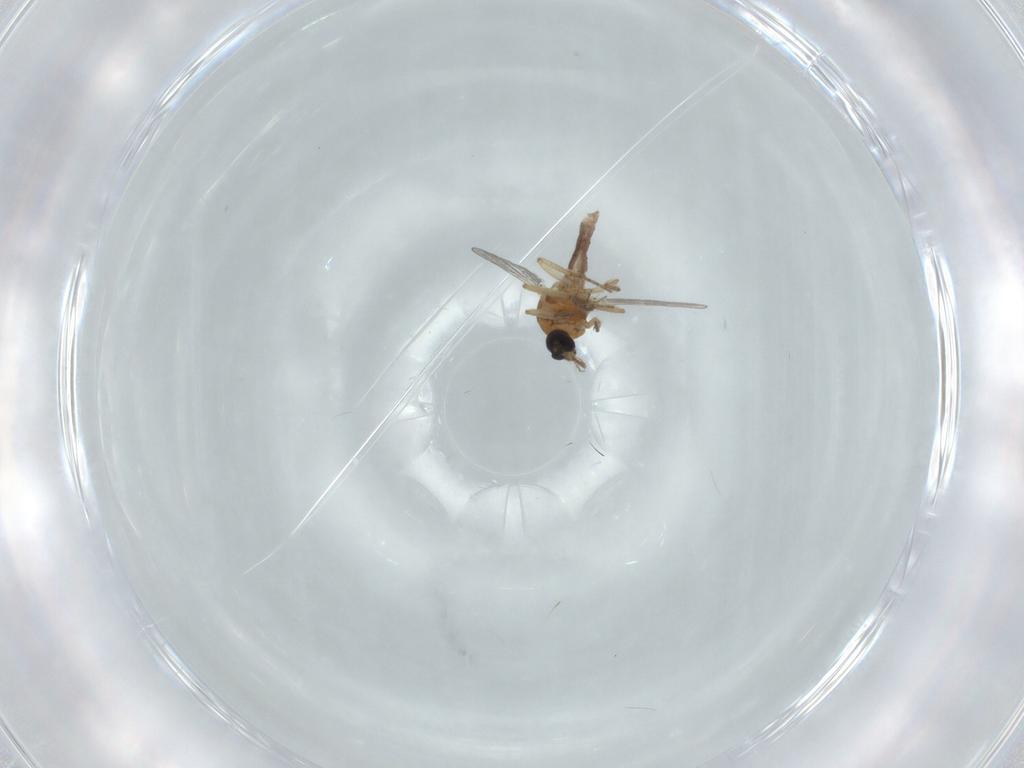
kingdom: Animalia
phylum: Arthropoda
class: Insecta
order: Diptera
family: Ceratopogonidae
